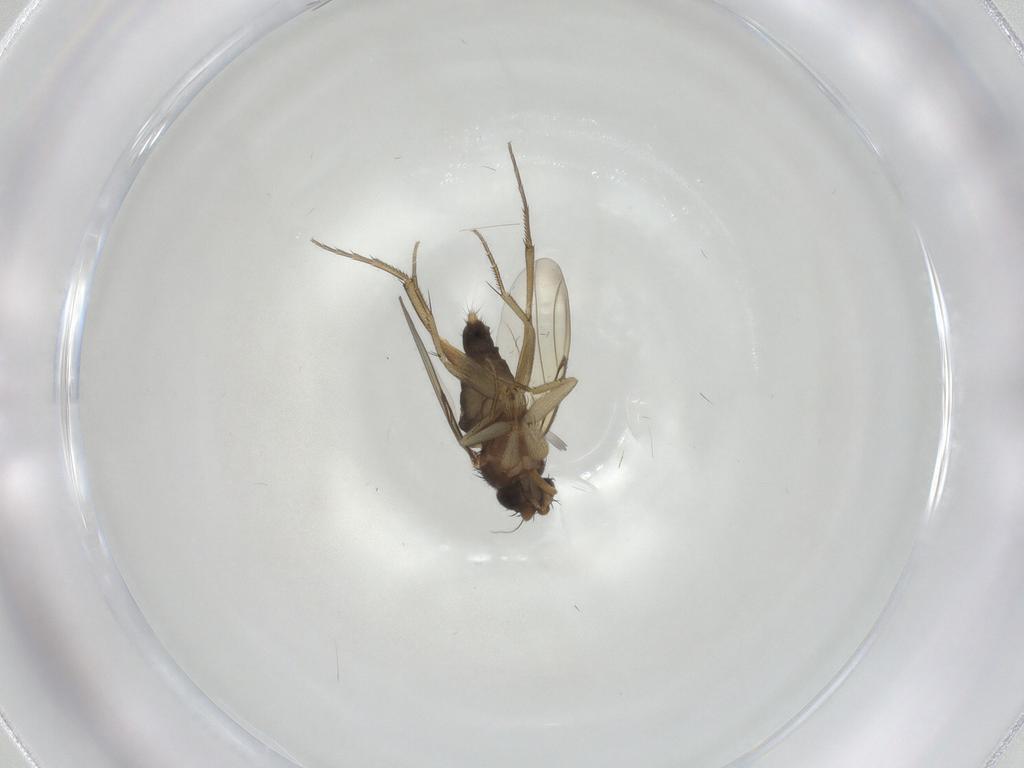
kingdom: Animalia
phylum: Arthropoda
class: Insecta
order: Diptera
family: Phoridae
